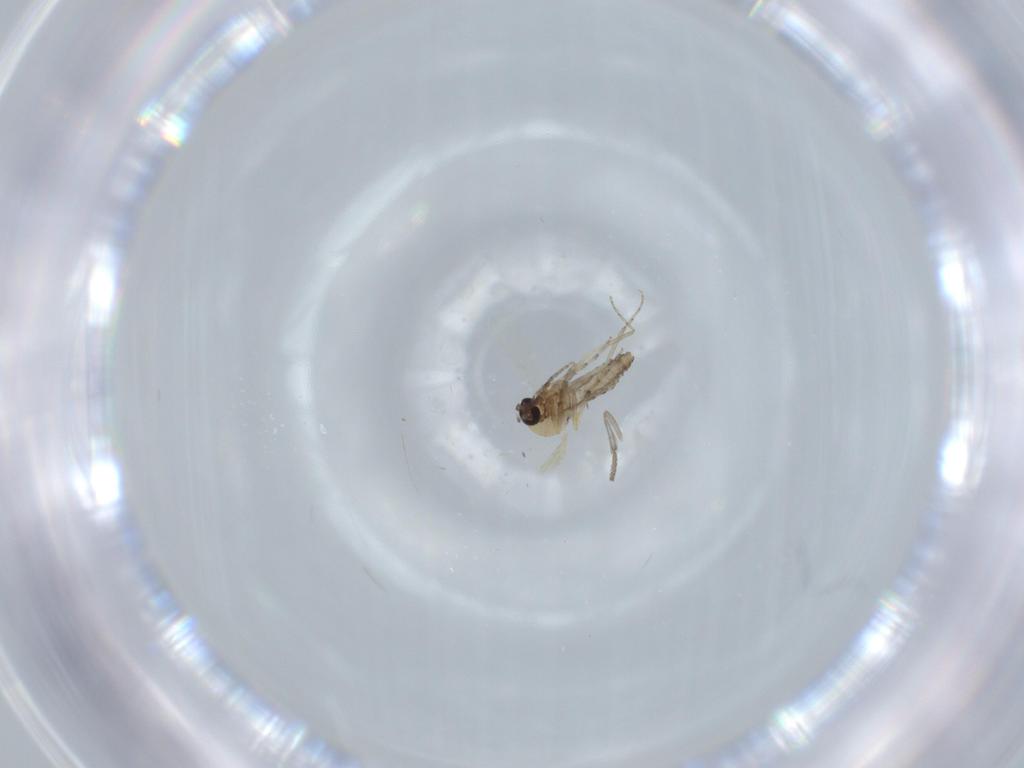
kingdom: Animalia
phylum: Arthropoda
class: Insecta
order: Diptera
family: Psychodidae
